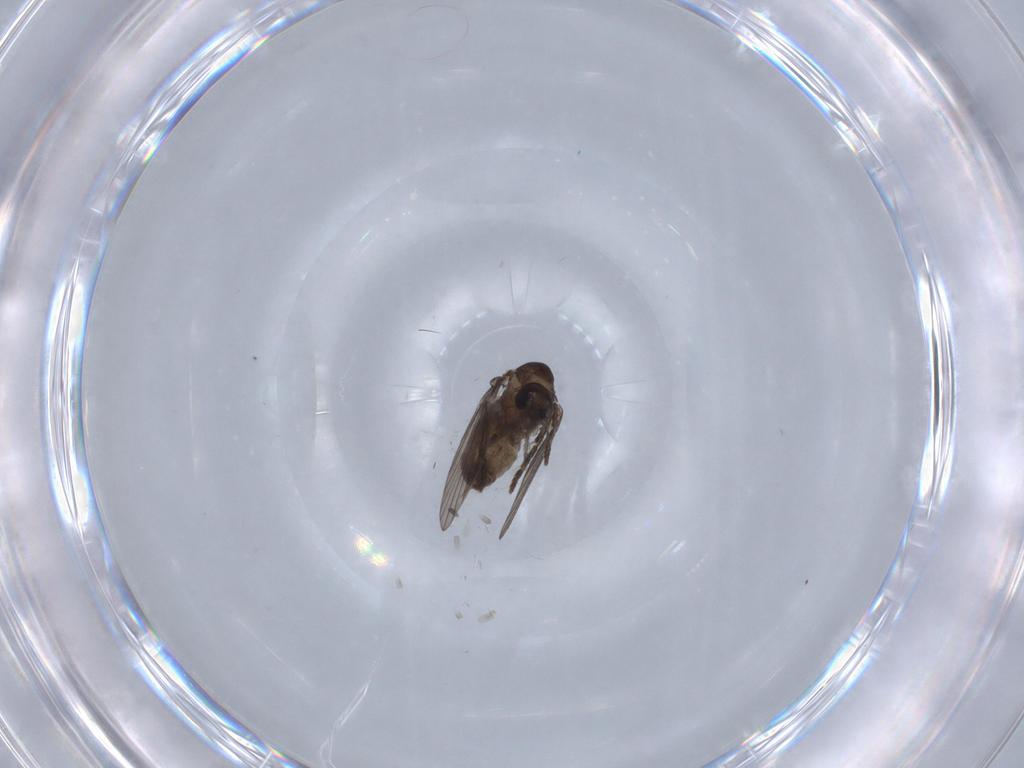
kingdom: Animalia
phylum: Arthropoda
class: Insecta
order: Diptera
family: Psychodidae
